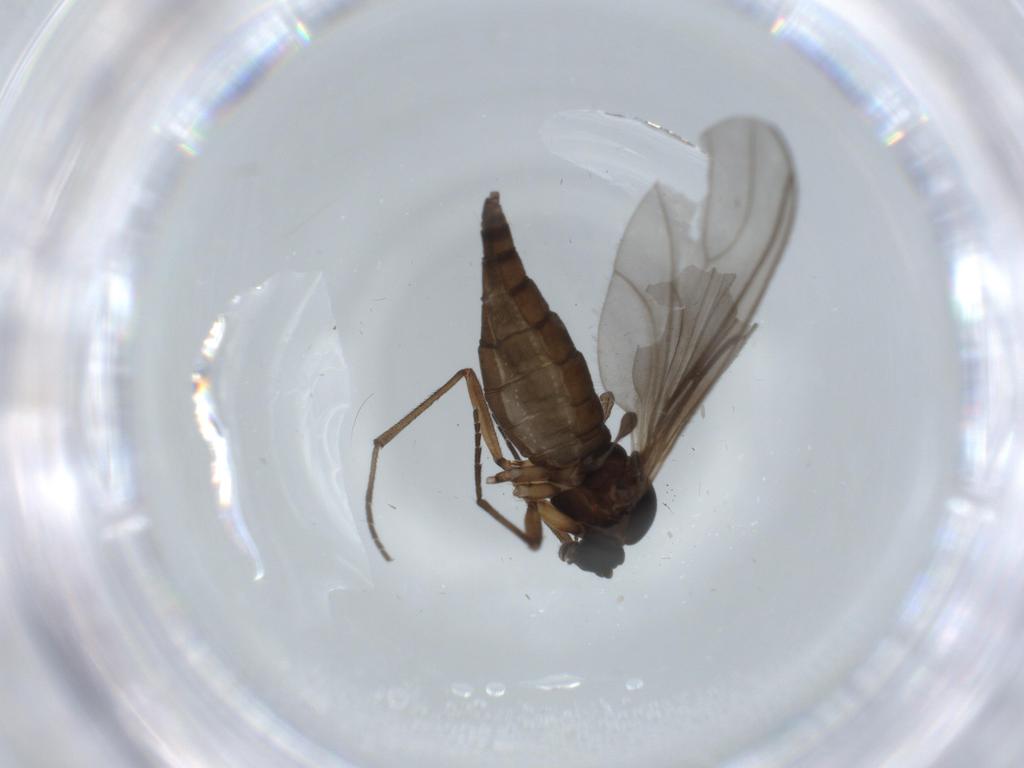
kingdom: Animalia
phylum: Arthropoda
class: Insecta
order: Diptera
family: Sciaridae
